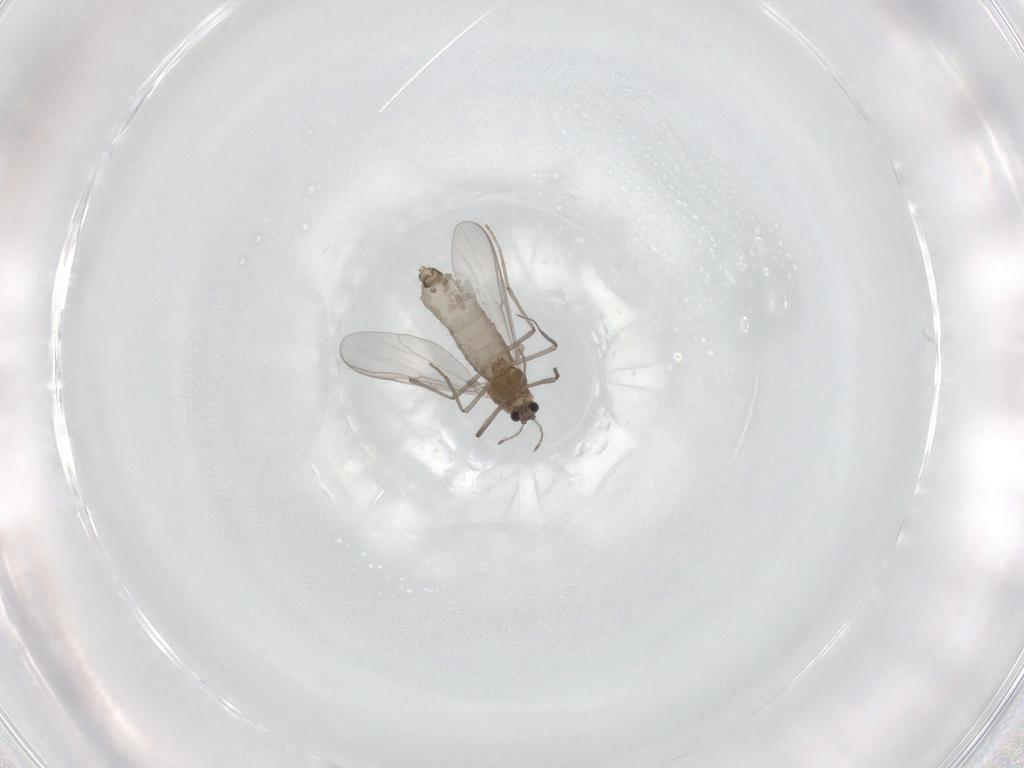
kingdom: Animalia
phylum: Arthropoda
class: Insecta
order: Diptera
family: Chironomidae
